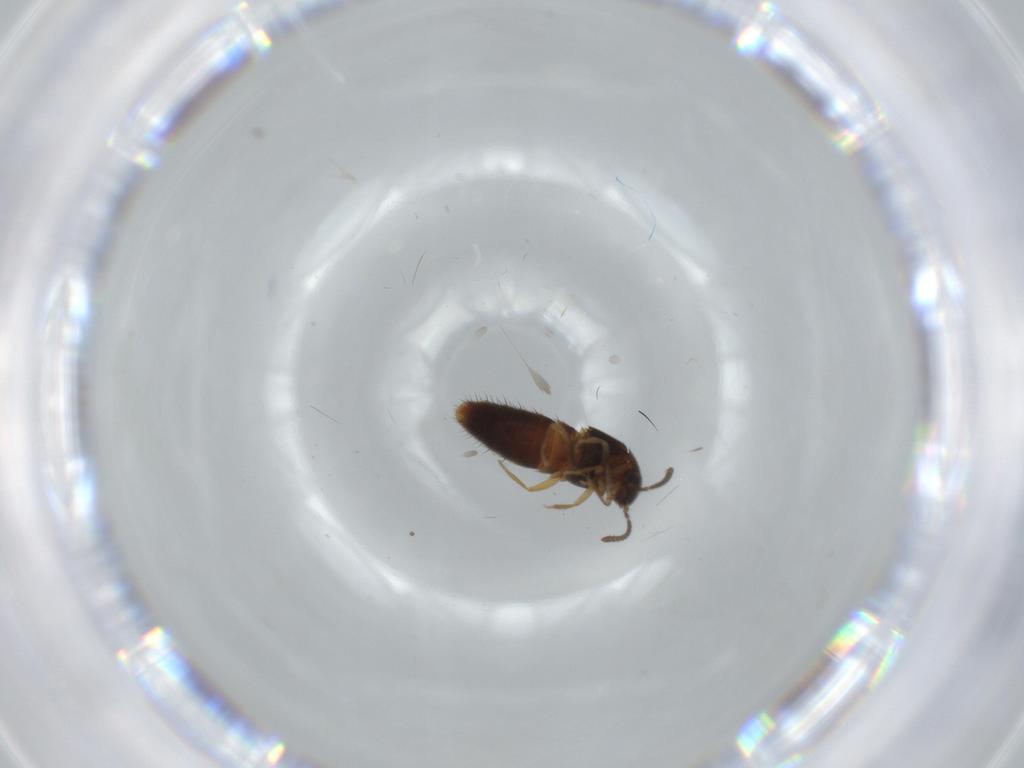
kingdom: Animalia
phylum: Arthropoda
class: Insecta
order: Coleoptera
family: Staphylinidae
